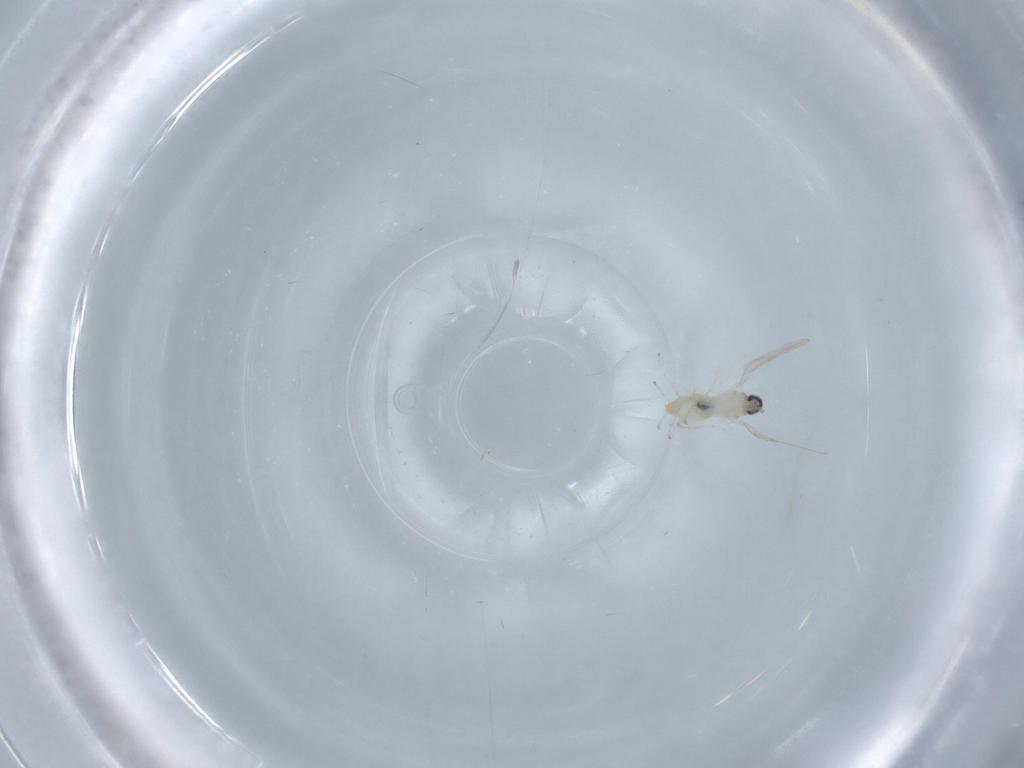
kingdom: Animalia
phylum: Arthropoda
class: Insecta
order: Diptera
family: Cecidomyiidae
